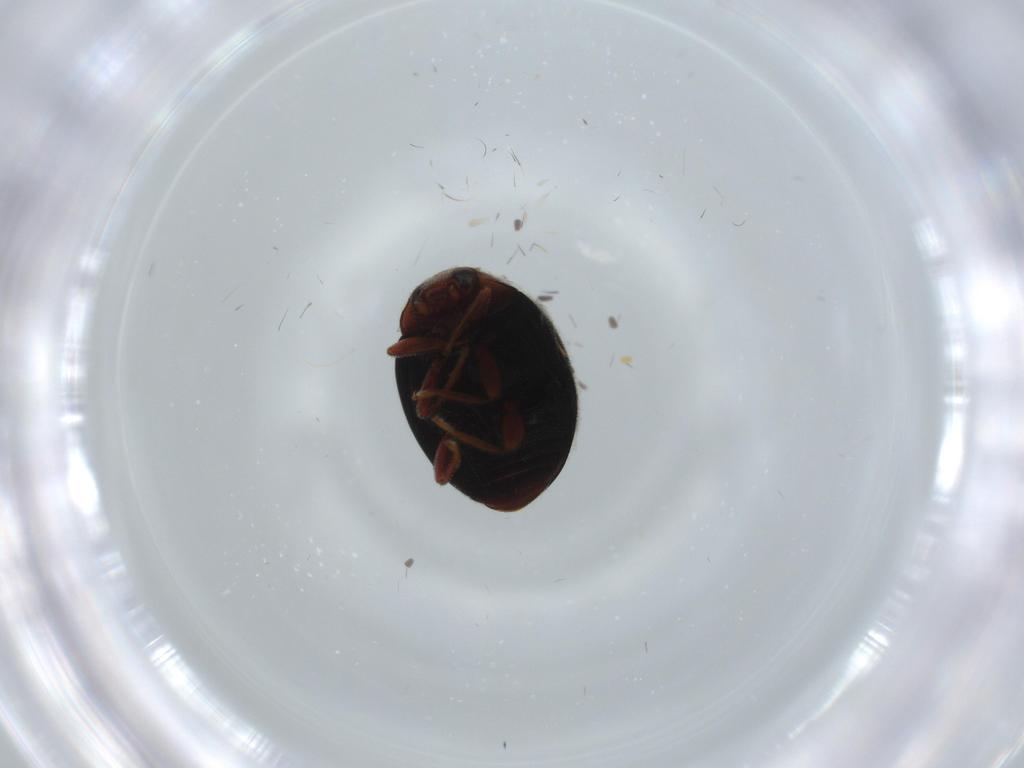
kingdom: Animalia
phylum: Arthropoda
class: Insecta
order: Coleoptera
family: Coccinellidae
